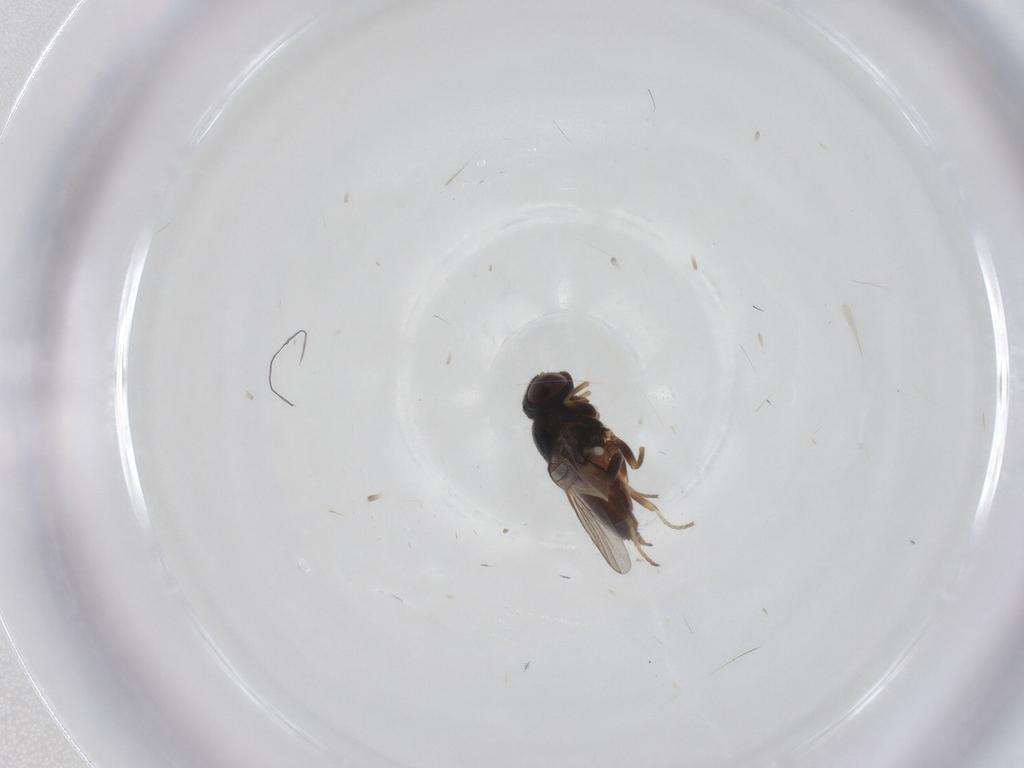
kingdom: Animalia
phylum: Arthropoda
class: Insecta
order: Diptera
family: Chloropidae
